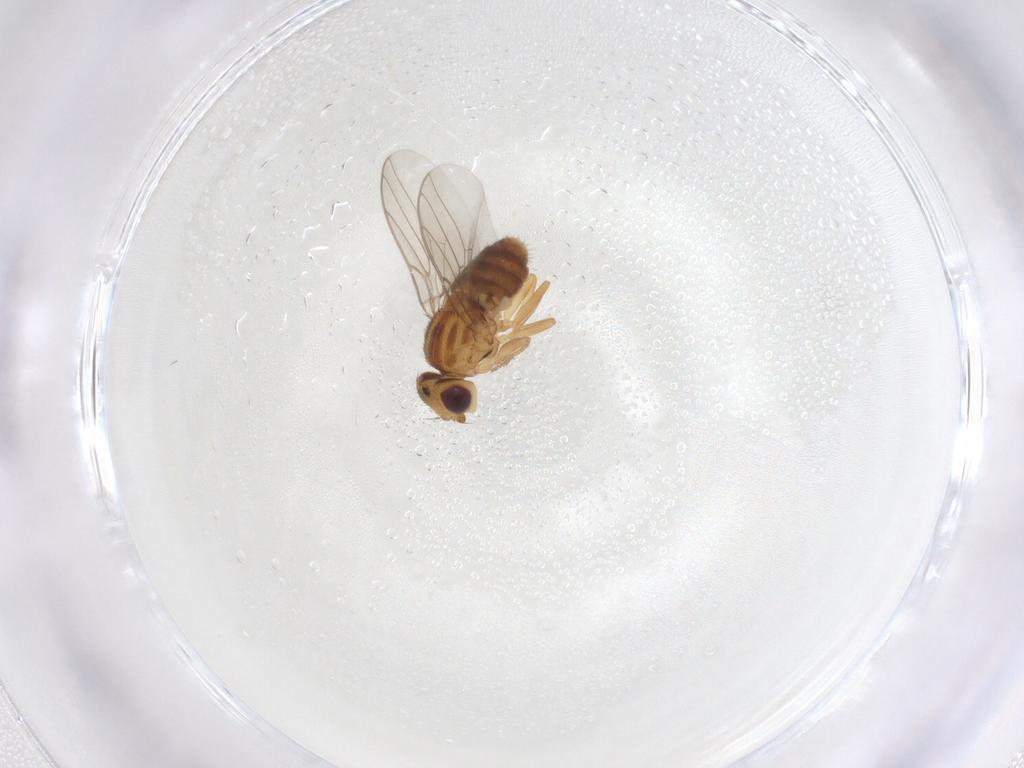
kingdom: Animalia
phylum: Arthropoda
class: Insecta
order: Diptera
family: Chloropidae
